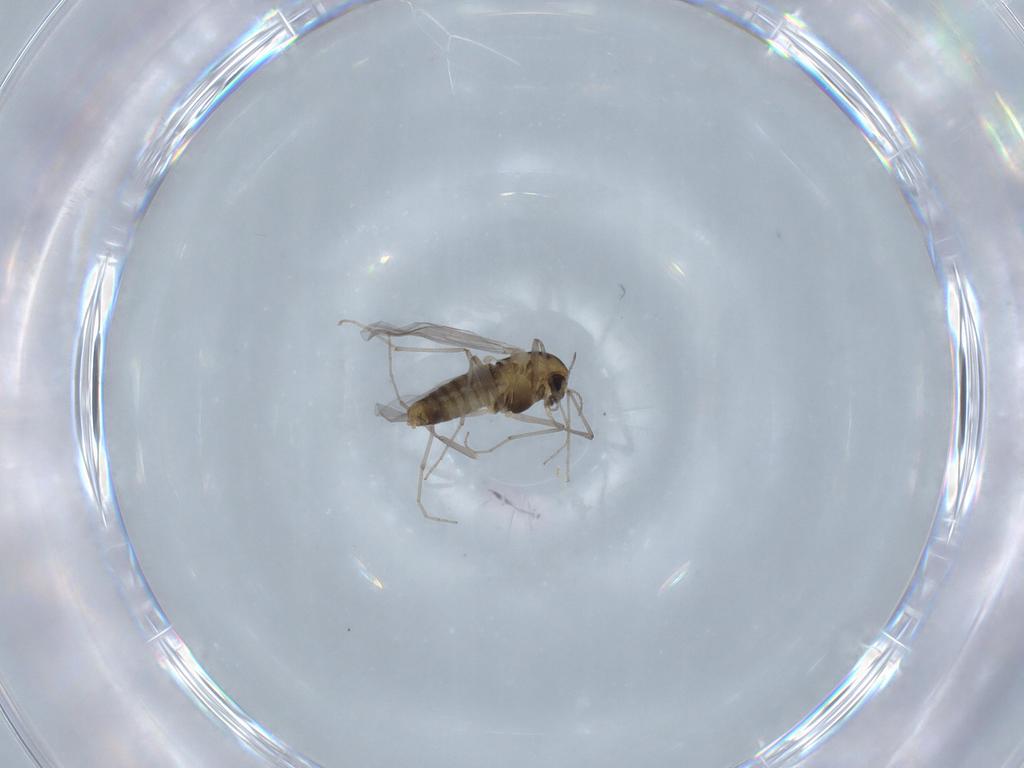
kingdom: Animalia
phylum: Arthropoda
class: Insecta
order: Diptera
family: Chironomidae
